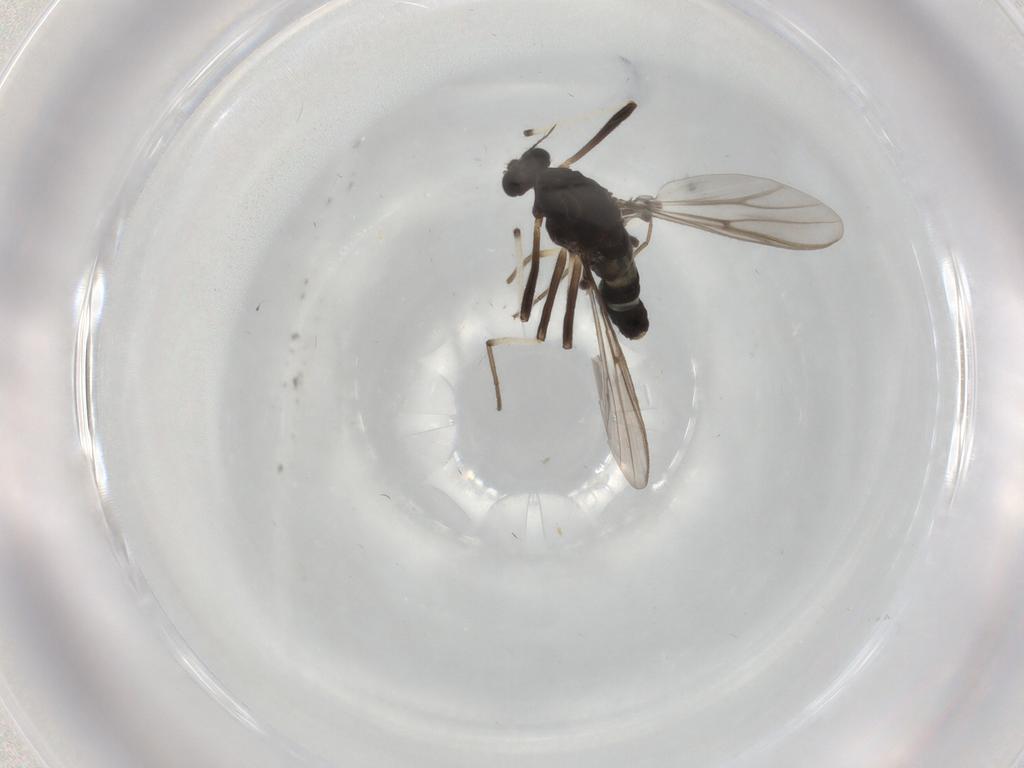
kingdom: Animalia
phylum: Arthropoda
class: Insecta
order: Diptera
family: Chironomidae
